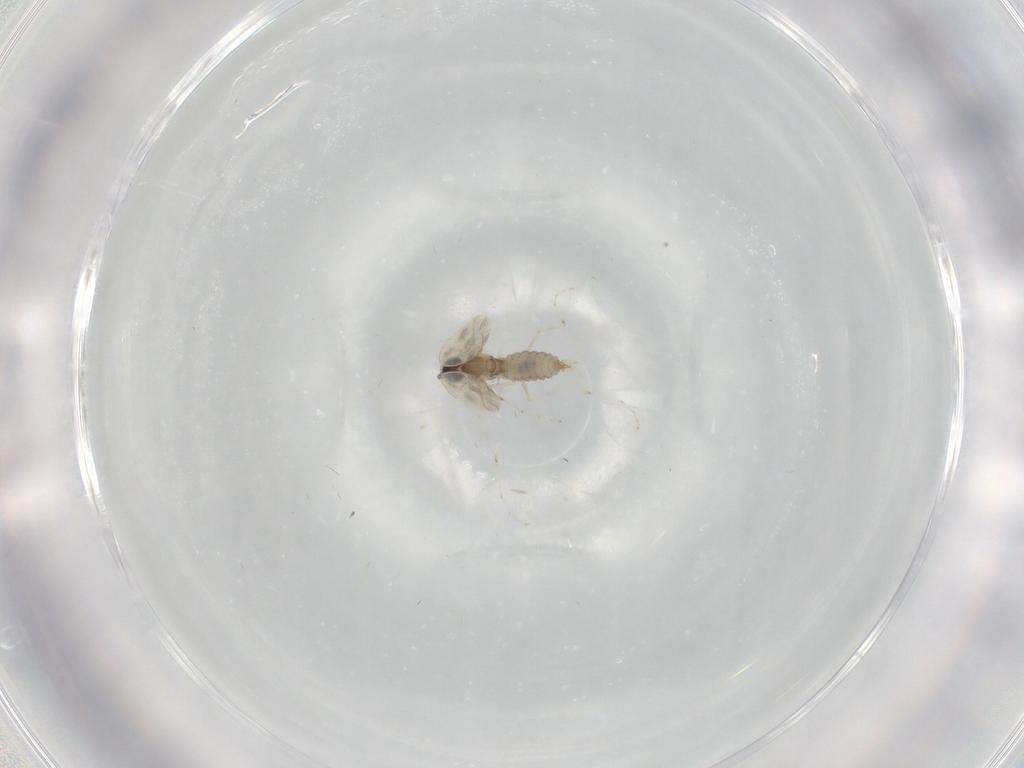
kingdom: Animalia
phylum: Arthropoda
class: Insecta
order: Diptera
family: Cecidomyiidae
